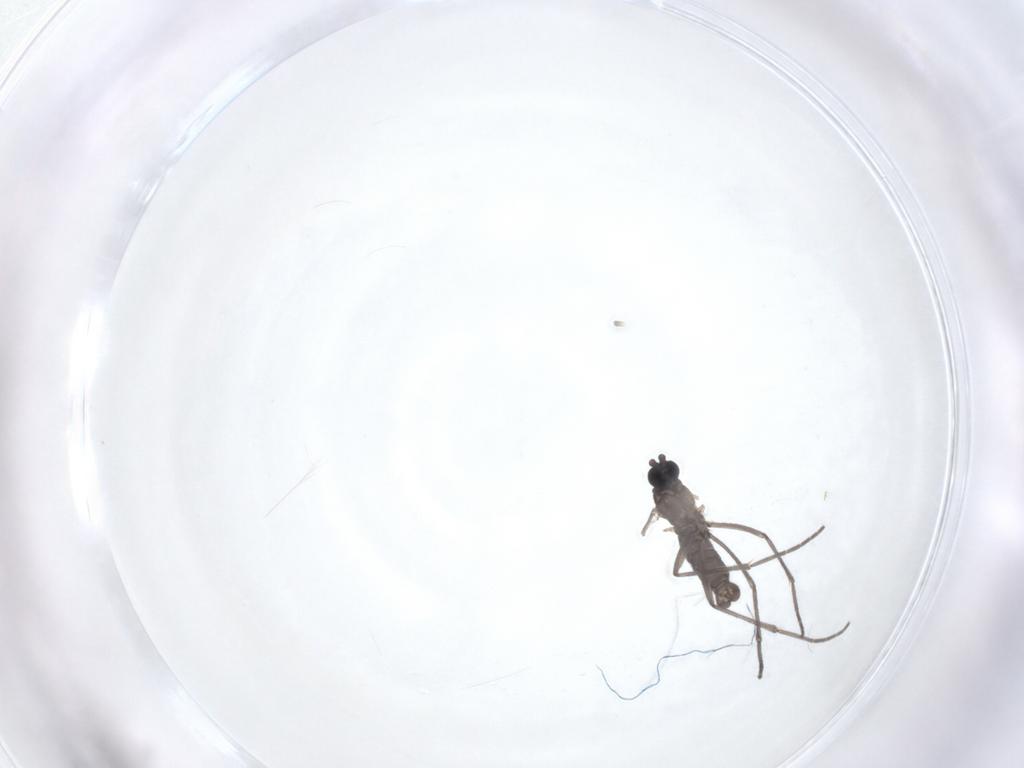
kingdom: Animalia
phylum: Arthropoda
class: Insecta
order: Diptera
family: Sciaridae
